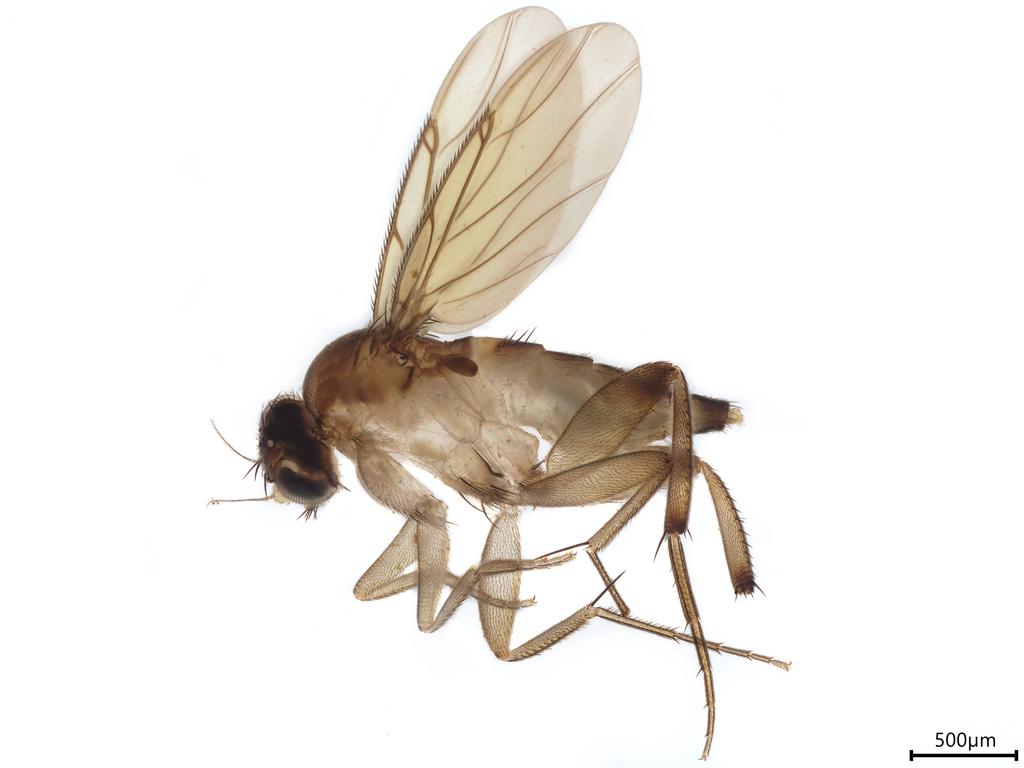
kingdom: Animalia
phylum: Arthropoda
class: Insecta
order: Diptera
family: Phoridae
